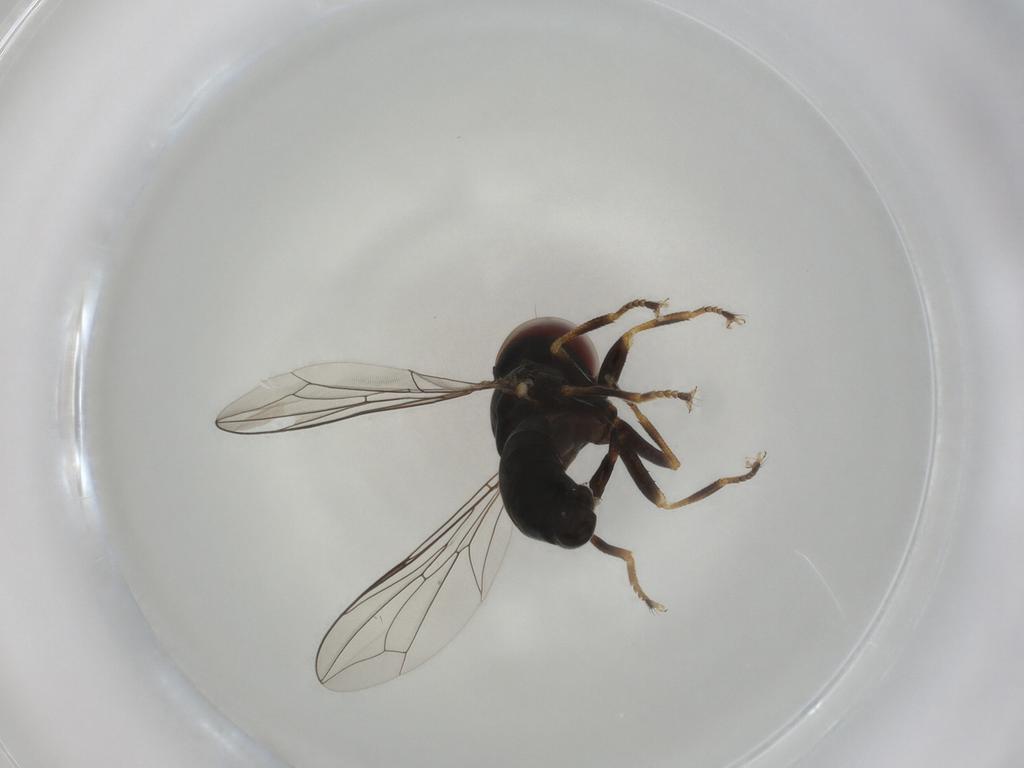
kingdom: Animalia
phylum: Arthropoda
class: Insecta
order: Diptera
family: Pipunculidae
